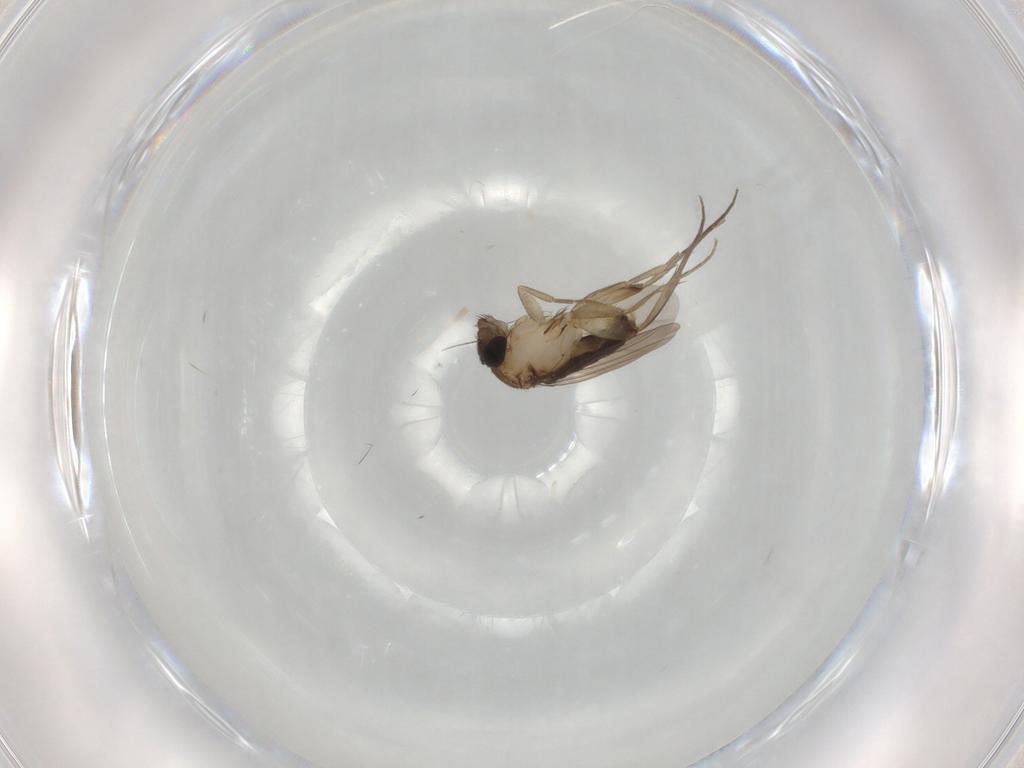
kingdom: Animalia
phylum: Arthropoda
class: Insecta
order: Diptera
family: Phoridae
